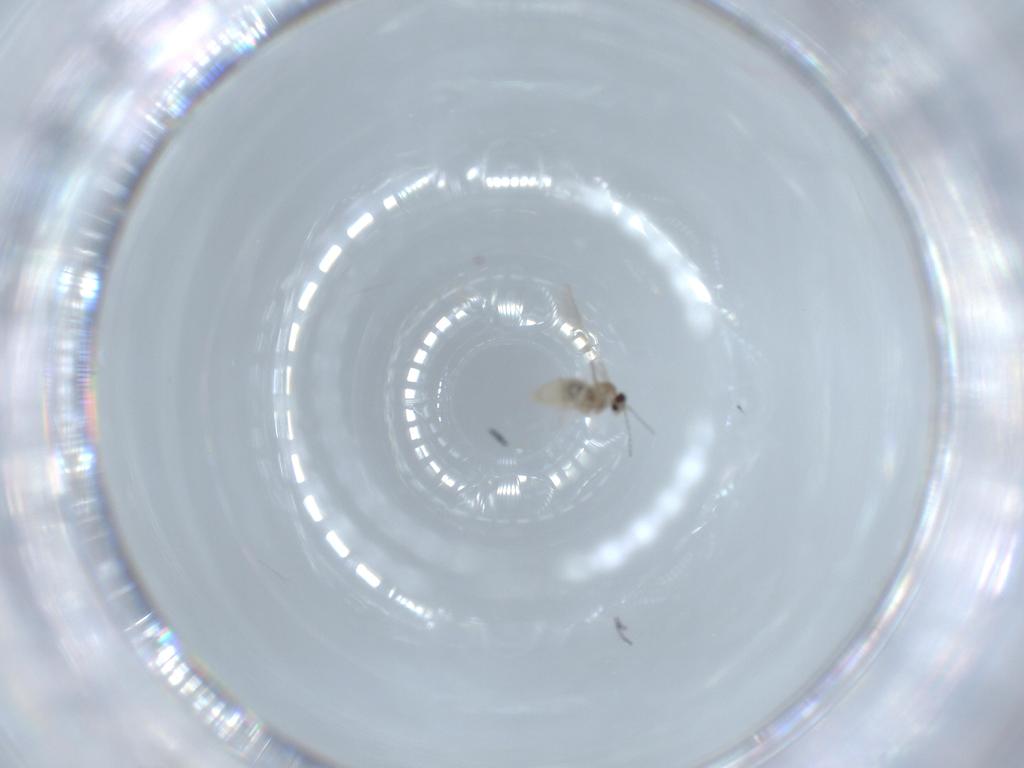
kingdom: Animalia
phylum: Arthropoda
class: Insecta
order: Diptera
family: Cecidomyiidae
